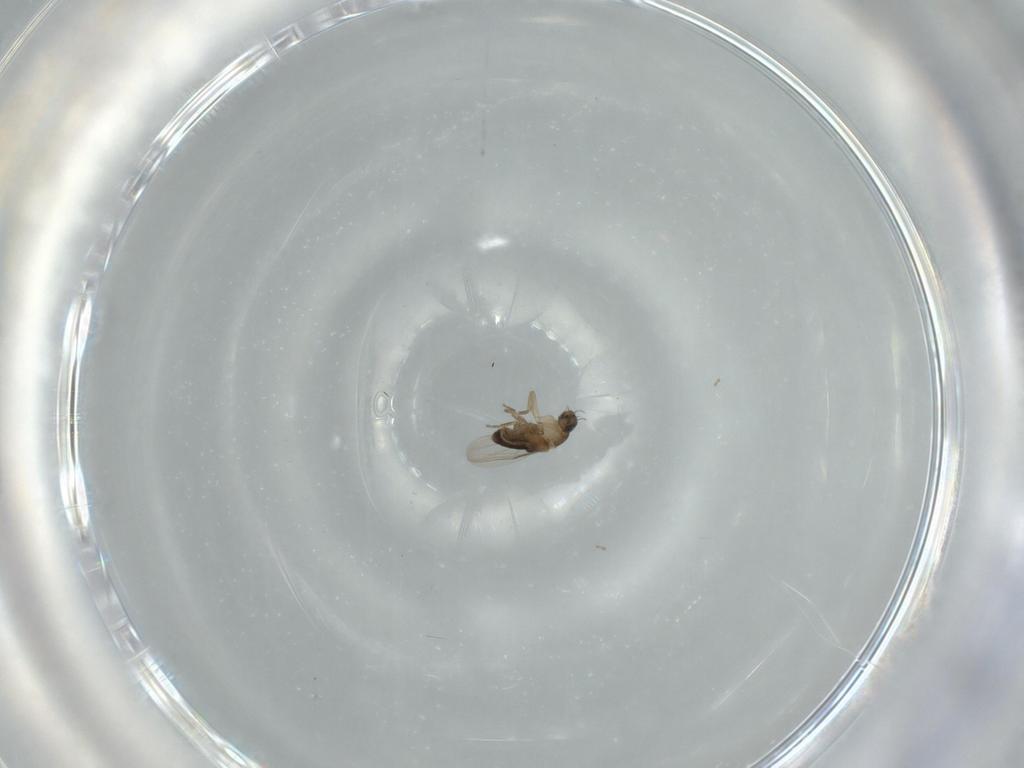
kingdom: Animalia
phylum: Arthropoda
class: Insecta
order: Diptera
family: Phoridae
